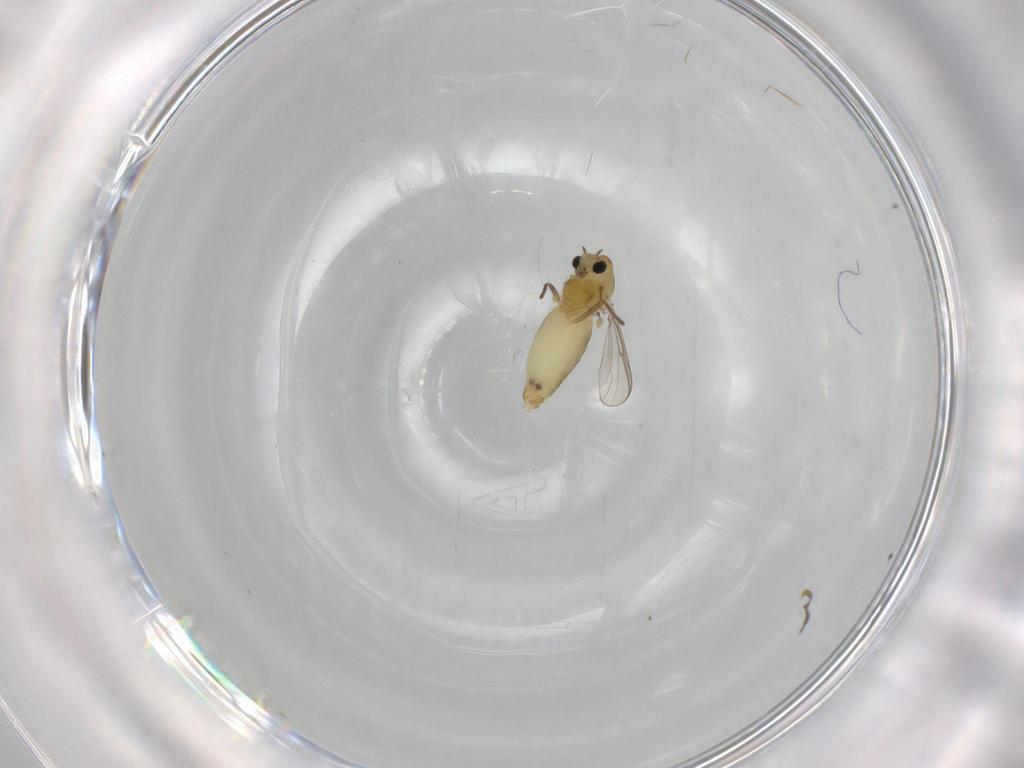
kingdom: Animalia
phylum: Arthropoda
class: Insecta
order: Diptera
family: Chironomidae
